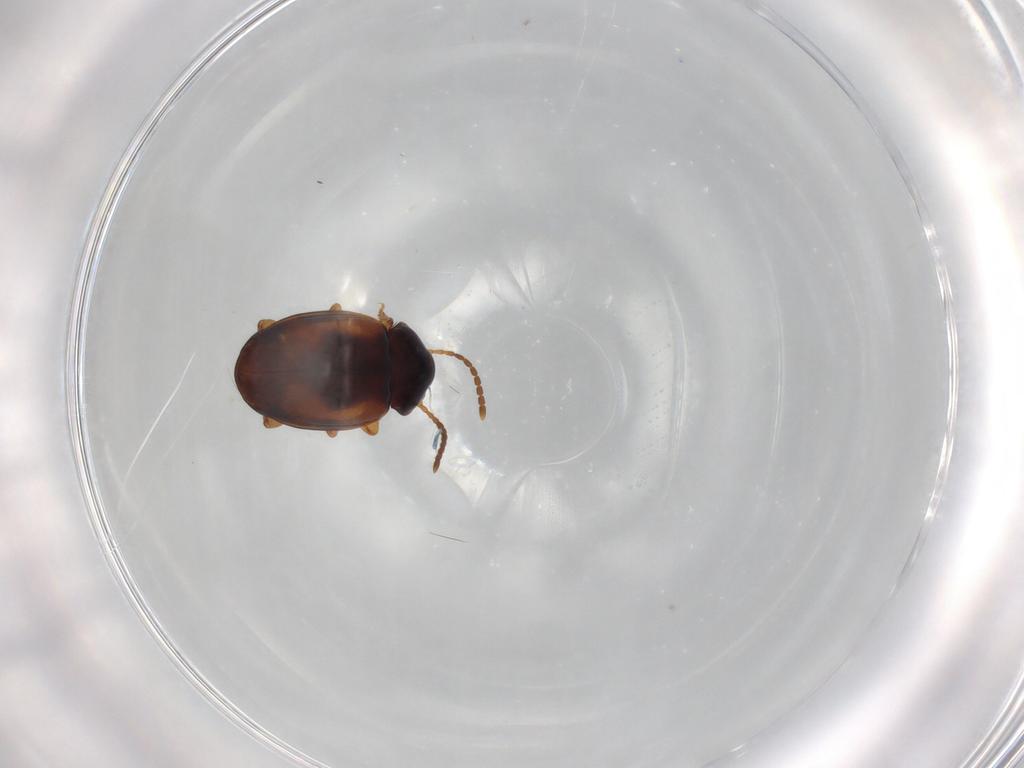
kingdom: Animalia
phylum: Arthropoda
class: Insecta
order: Coleoptera
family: Carabidae
